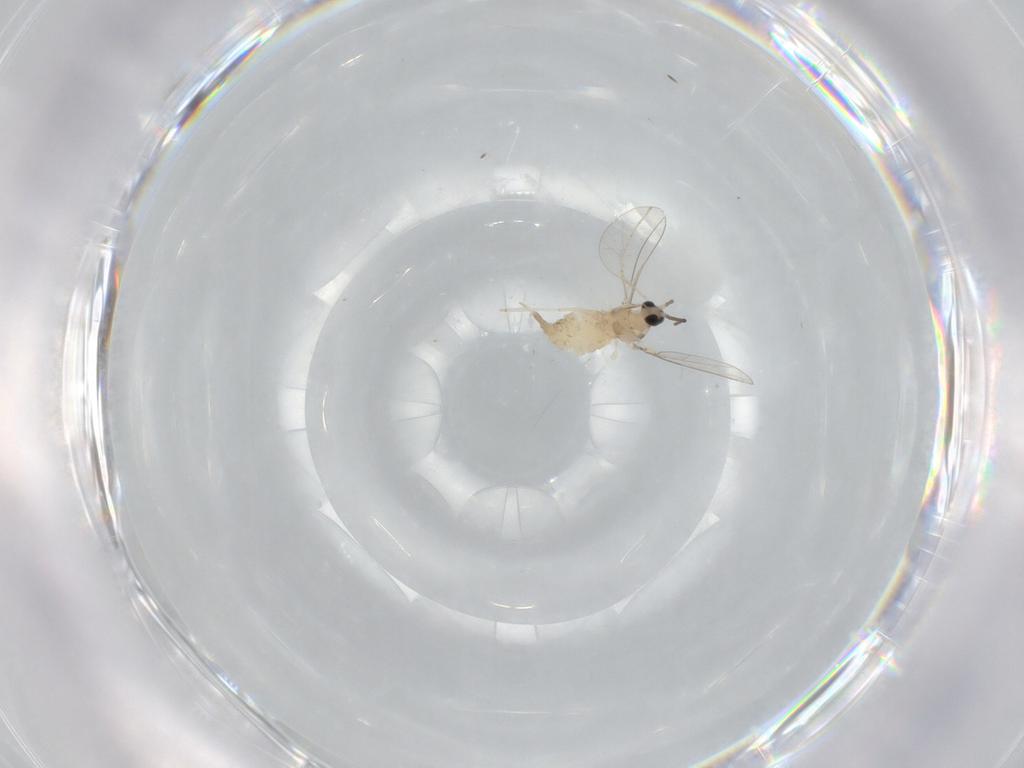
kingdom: Animalia
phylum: Arthropoda
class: Insecta
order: Diptera
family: Cecidomyiidae
